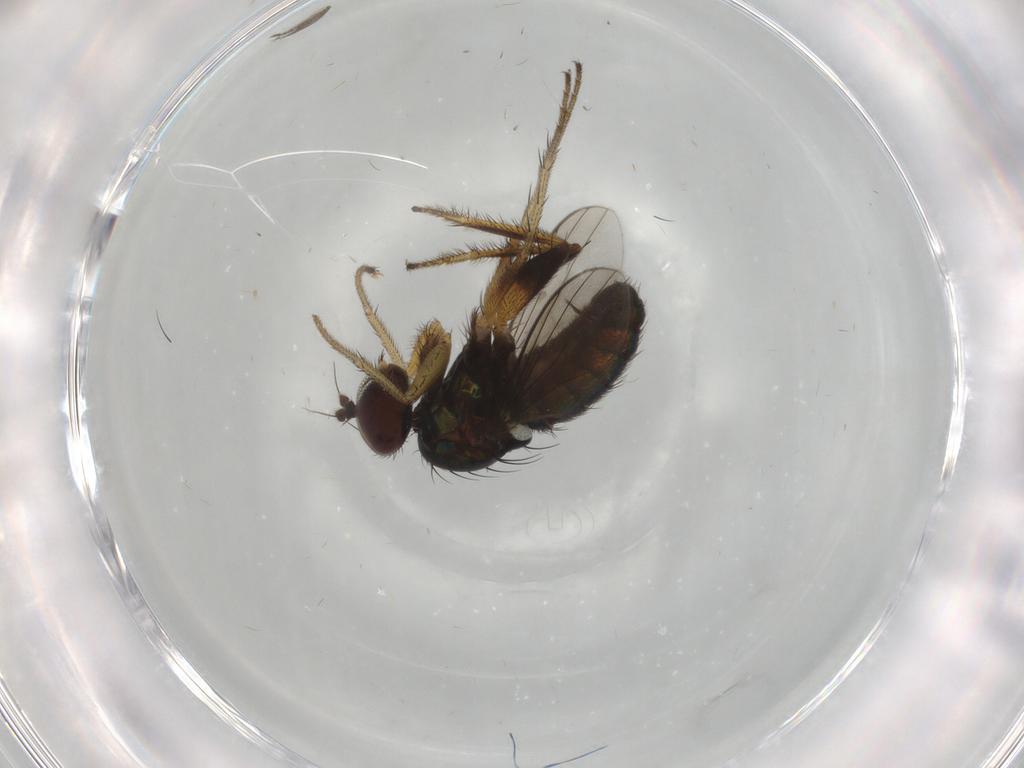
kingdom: Animalia
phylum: Arthropoda
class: Insecta
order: Diptera
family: Dolichopodidae
